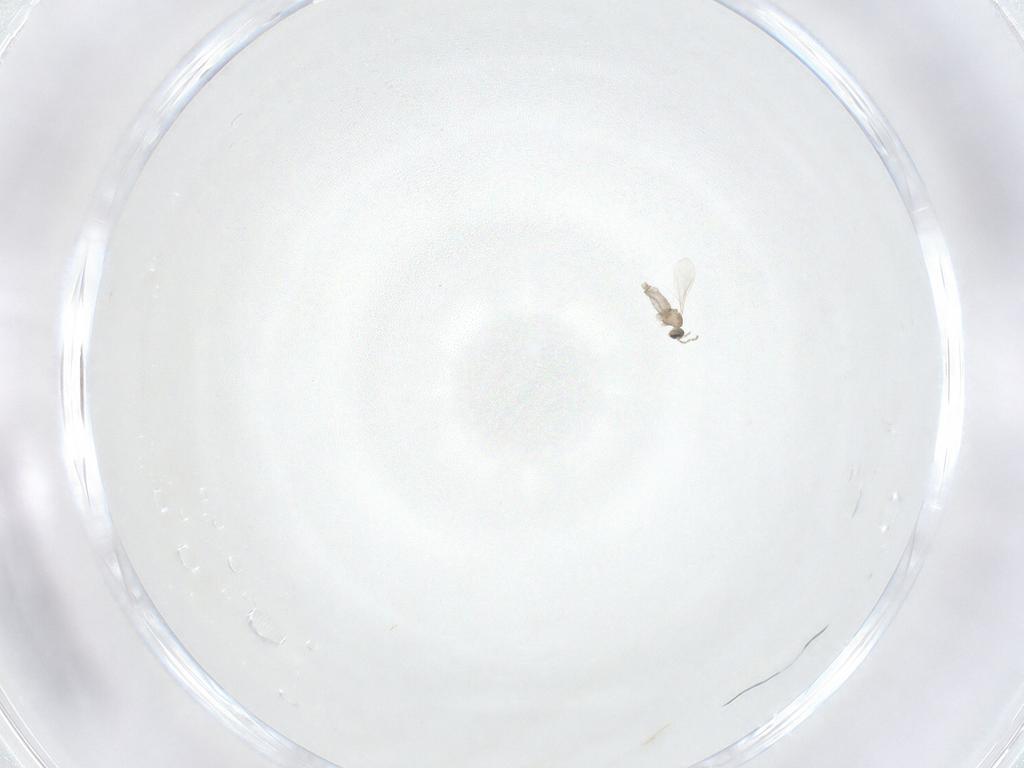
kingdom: Animalia
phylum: Arthropoda
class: Insecta
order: Diptera
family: Cecidomyiidae
